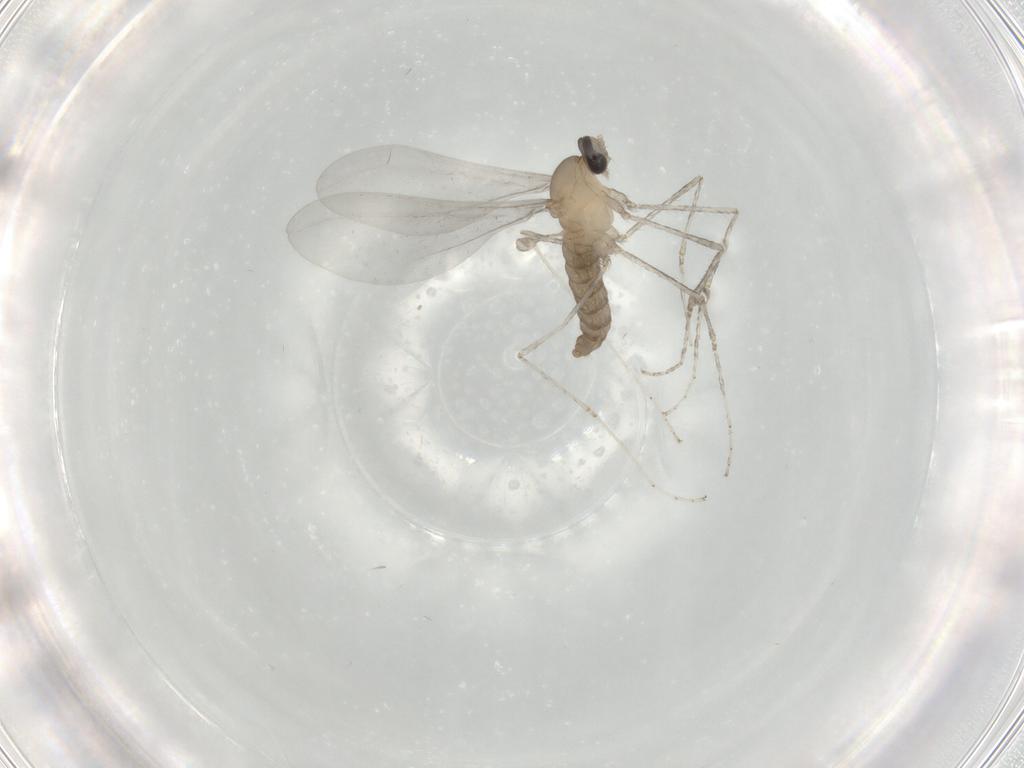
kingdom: Animalia
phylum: Arthropoda
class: Insecta
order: Diptera
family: Cecidomyiidae
